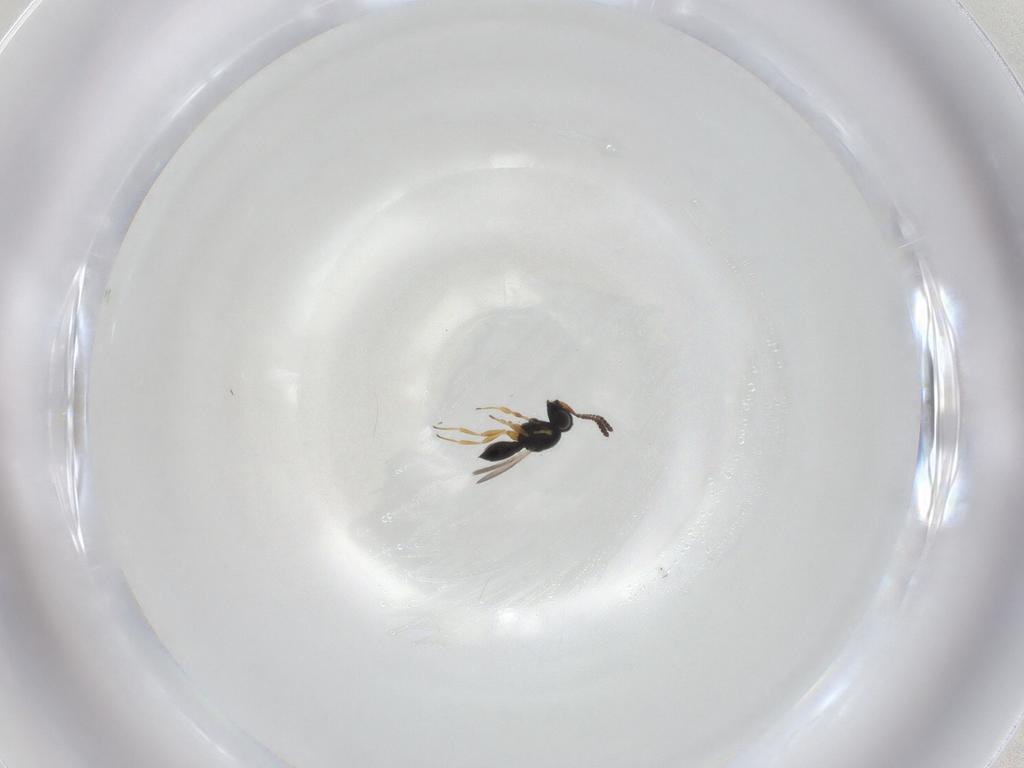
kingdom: Animalia
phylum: Arthropoda
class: Insecta
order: Hymenoptera
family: Scelionidae
